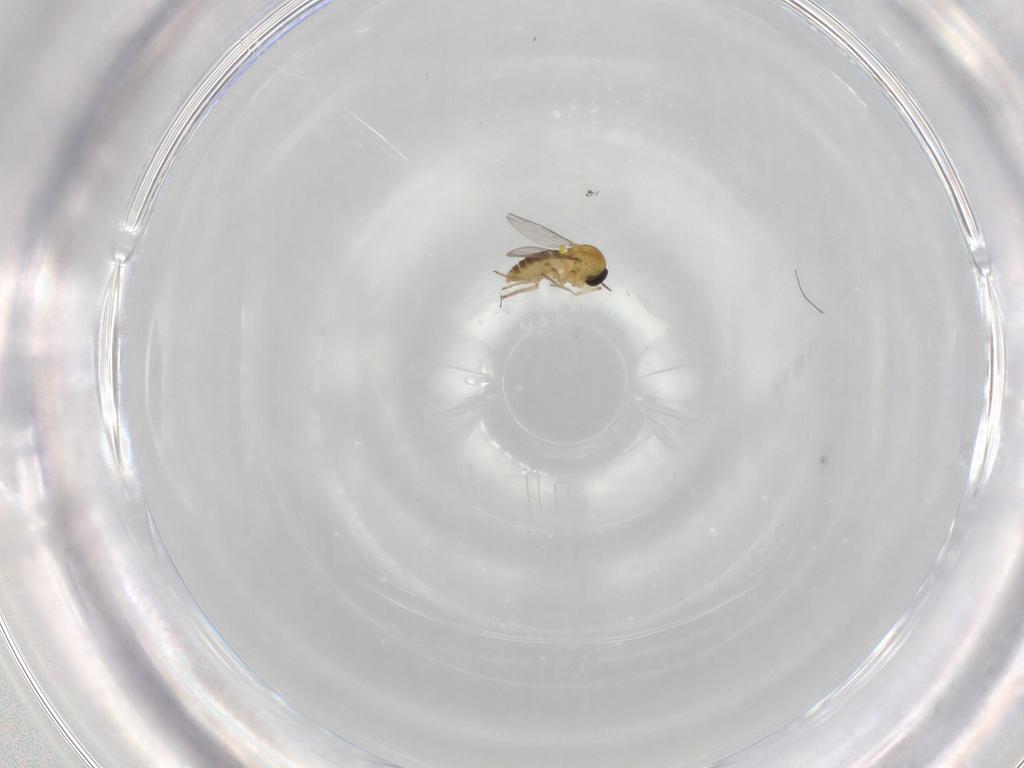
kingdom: Animalia
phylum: Arthropoda
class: Insecta
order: Diptera
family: Ceratopogonidae
